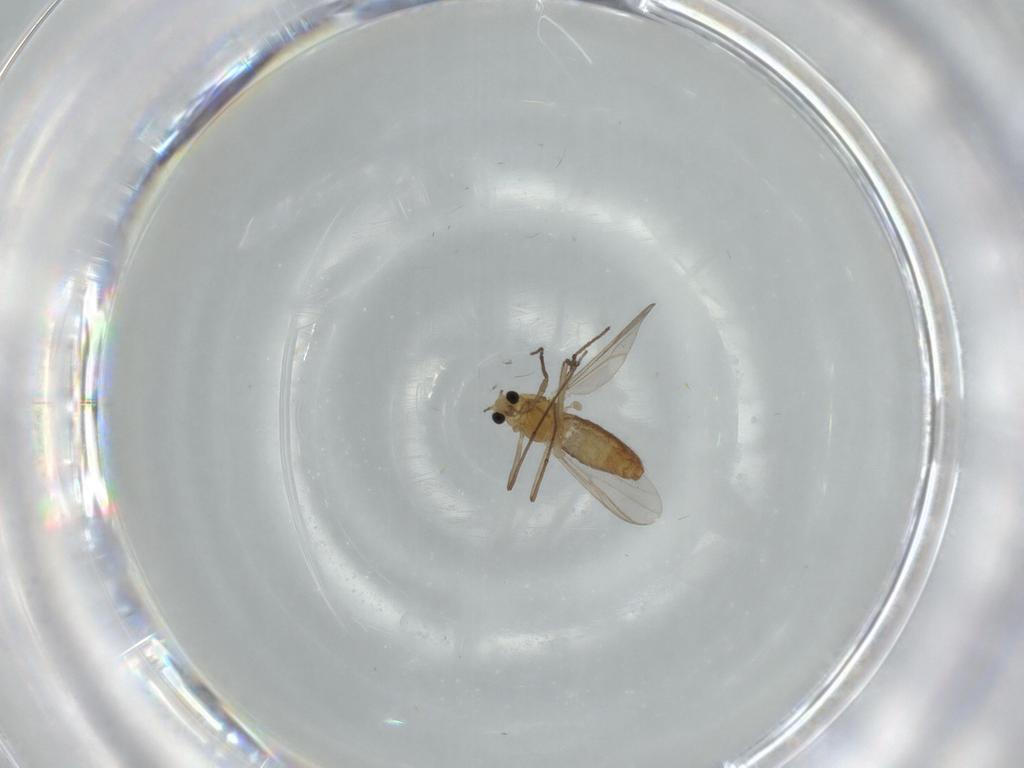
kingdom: Animalia
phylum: Arthropoda
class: Insecta
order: Diptera
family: Chironomidae
